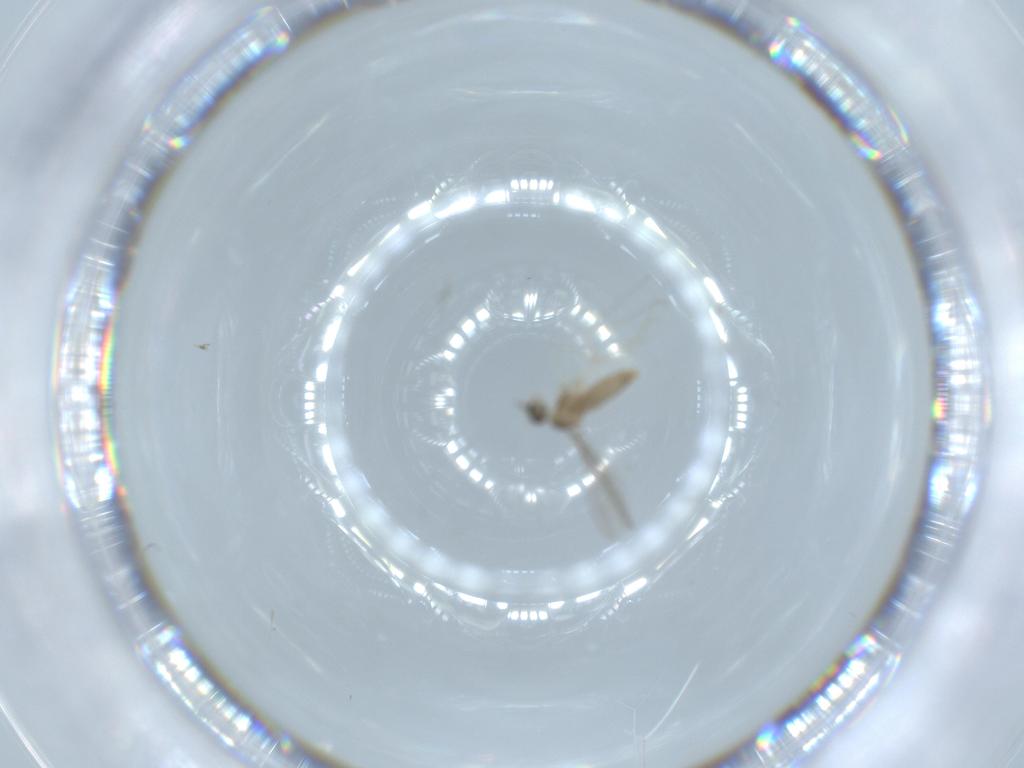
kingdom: Animalia
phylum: Arthropoda
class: Insecta
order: Diptera
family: Cecidomyiidae
